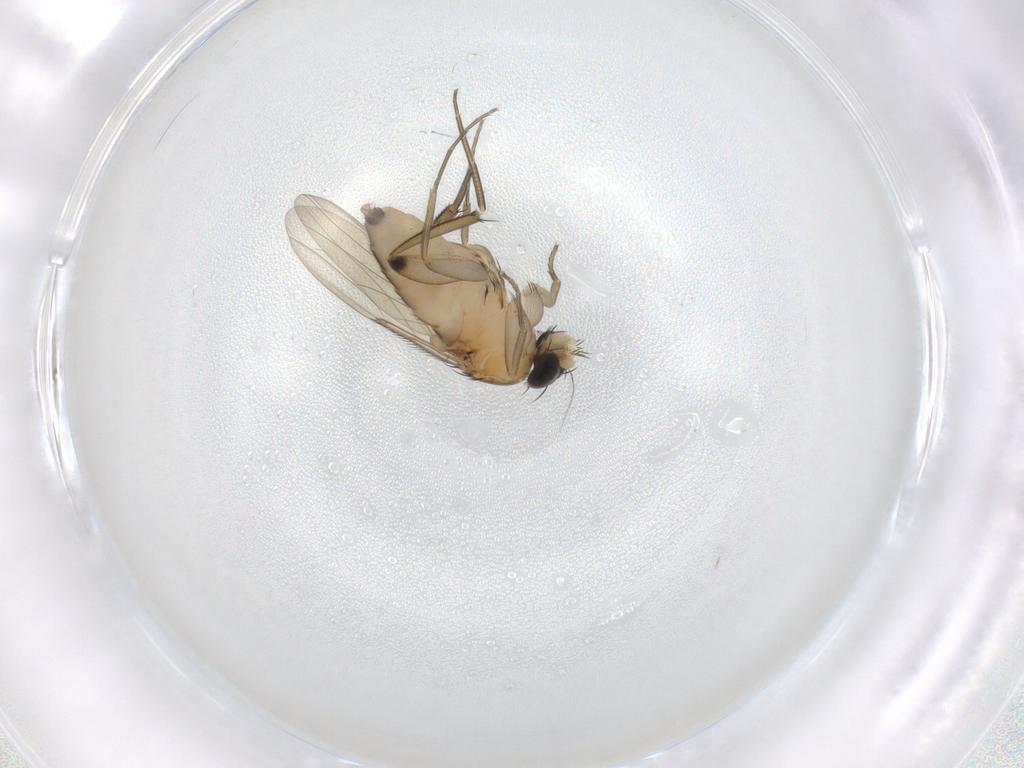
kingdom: Animalia
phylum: Arthropoda
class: Insecta
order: Diptera
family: Phoridae
